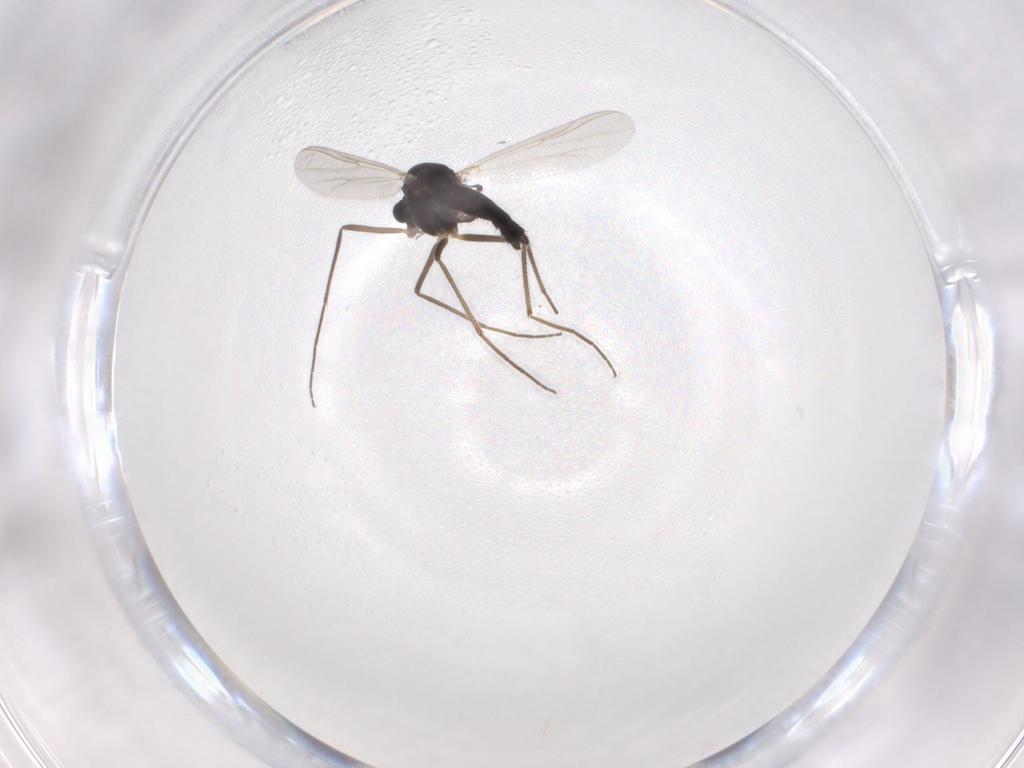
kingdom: Animalia
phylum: Arthropoda
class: Insecta
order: Diptera
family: Chironomidae
